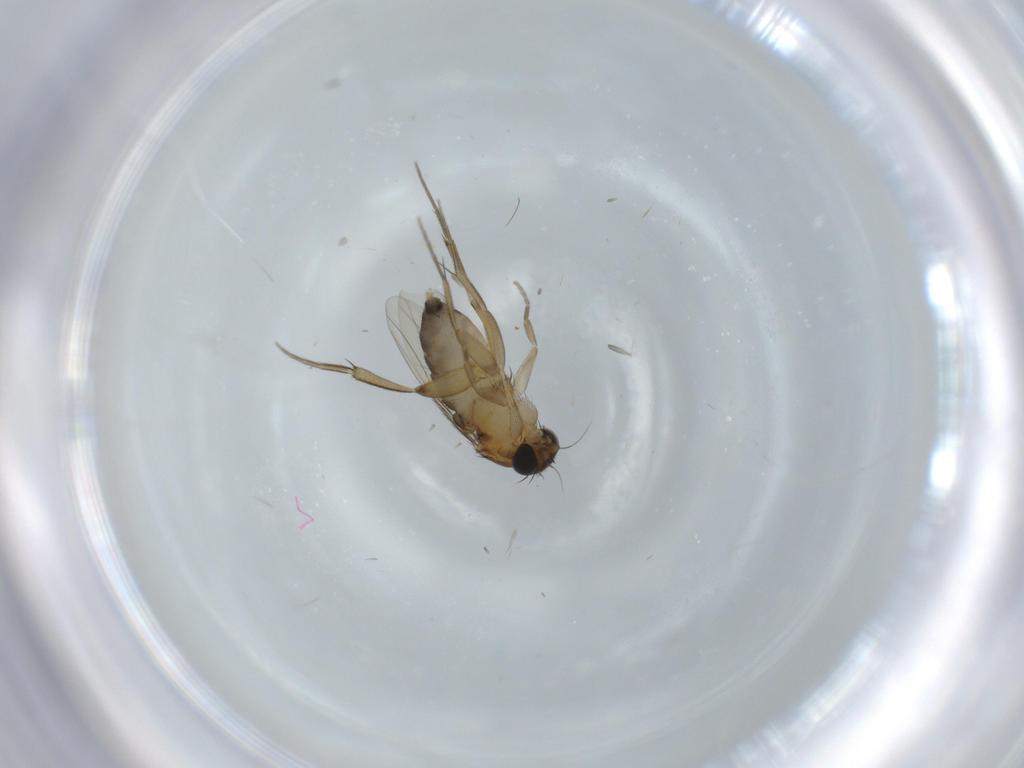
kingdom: Animalia
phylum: Arthropoda
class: Insecta
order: Diptera
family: Phoridae
